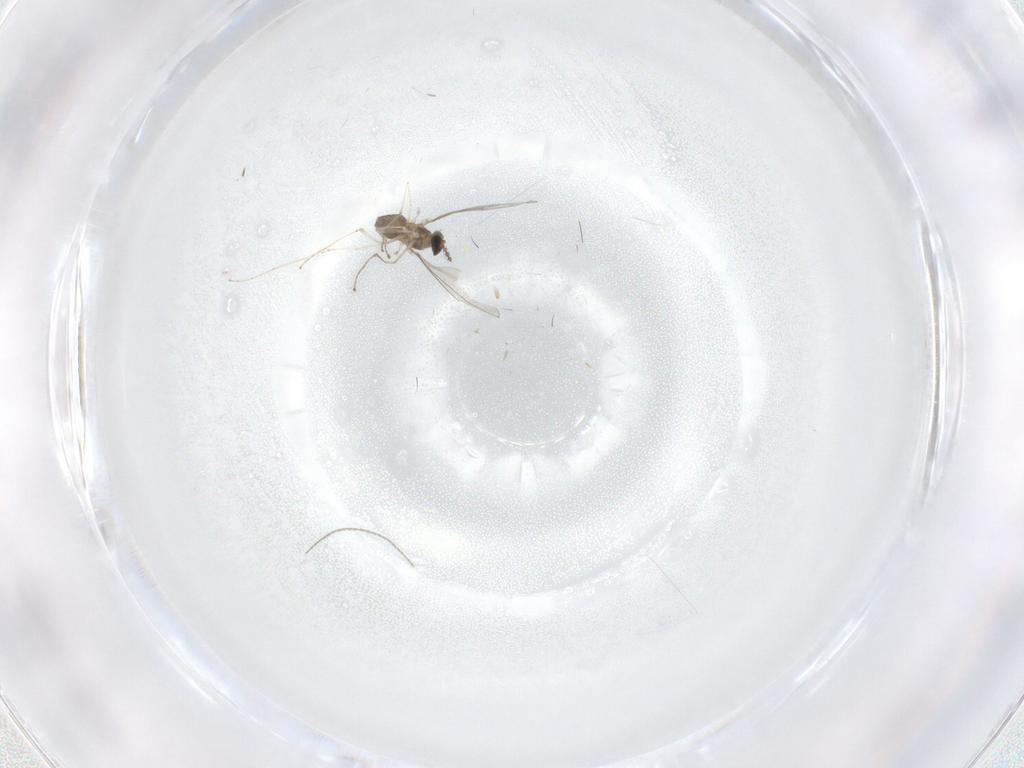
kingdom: Animalia
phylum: Arthropoda
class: Insecta
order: Diptera
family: Cecidomyiidae
